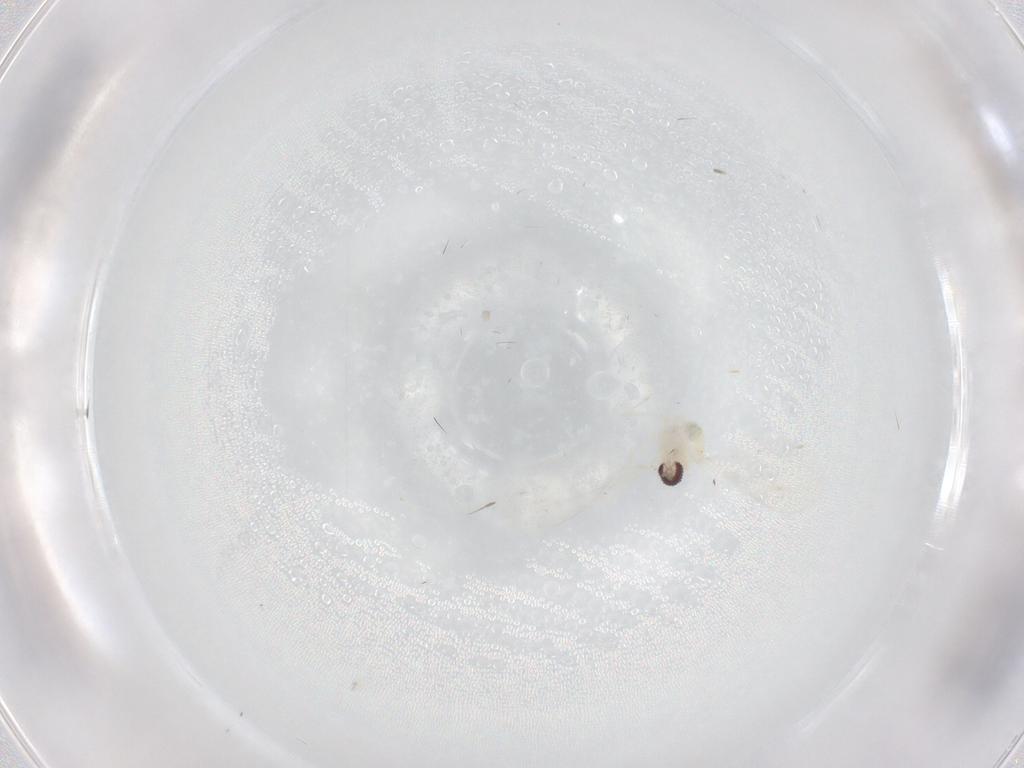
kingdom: Animalia
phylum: Arthropoda
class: Insecta
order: Diptera
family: Cecidomyiidae
